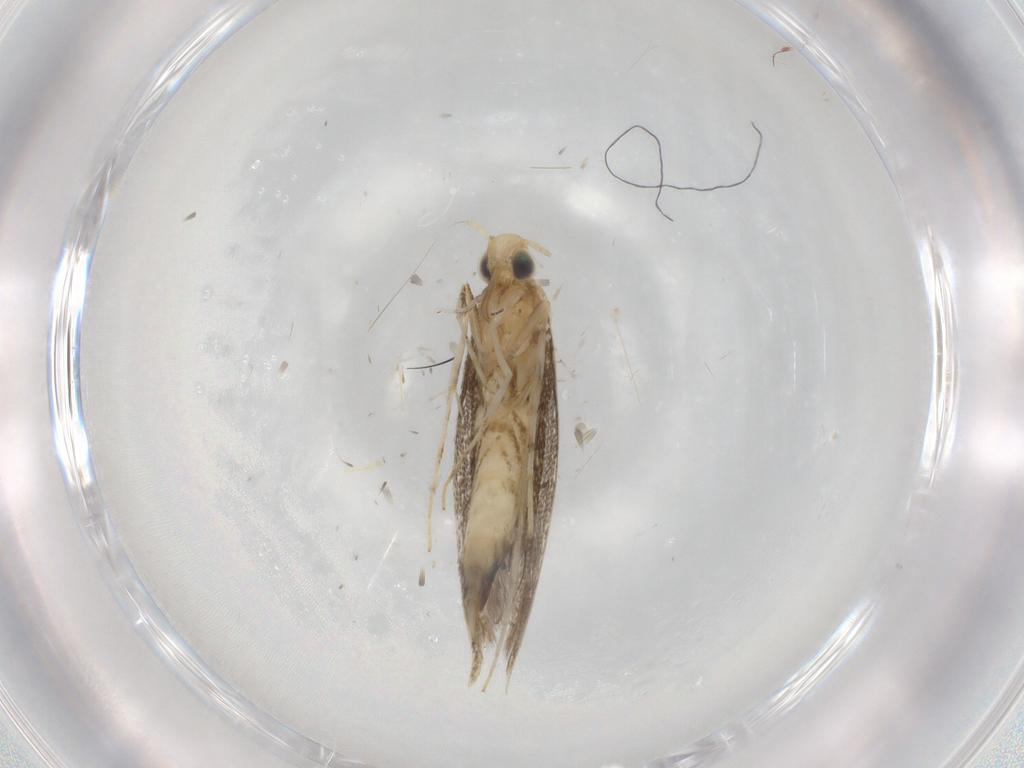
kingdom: Animalia
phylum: Arthropoda
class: Insecta
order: Lepidoptera
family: Gracillariidae
